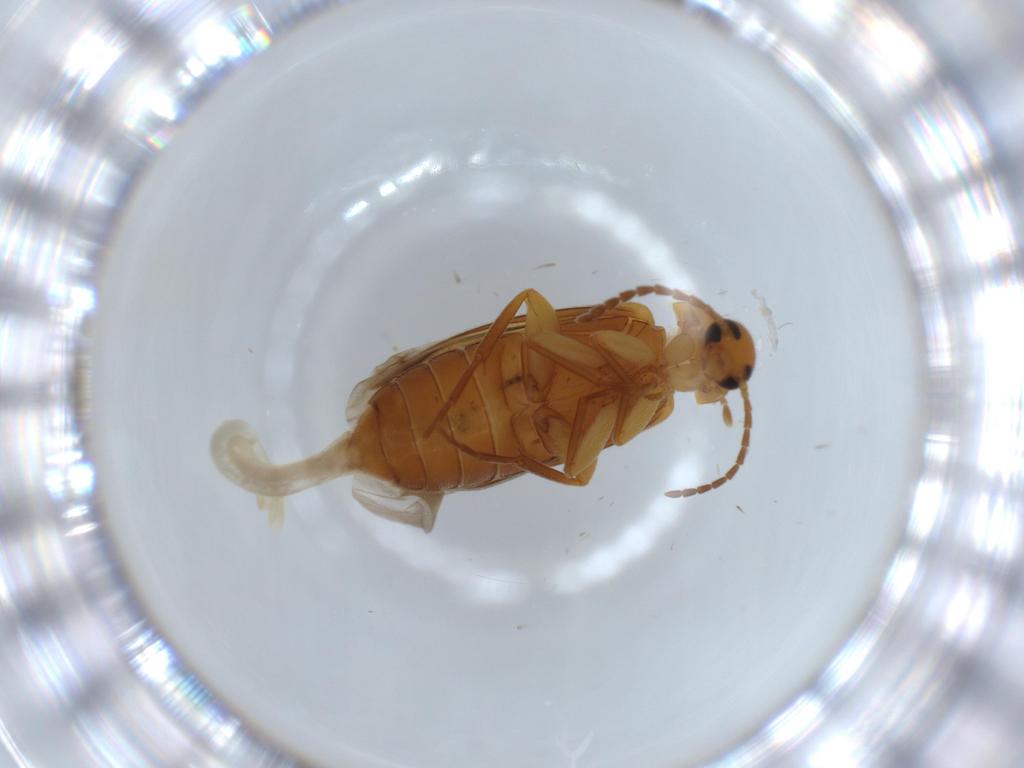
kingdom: Animalia
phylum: Arthropoda
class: Insecta
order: Coleoptera
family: Scraptiidae
